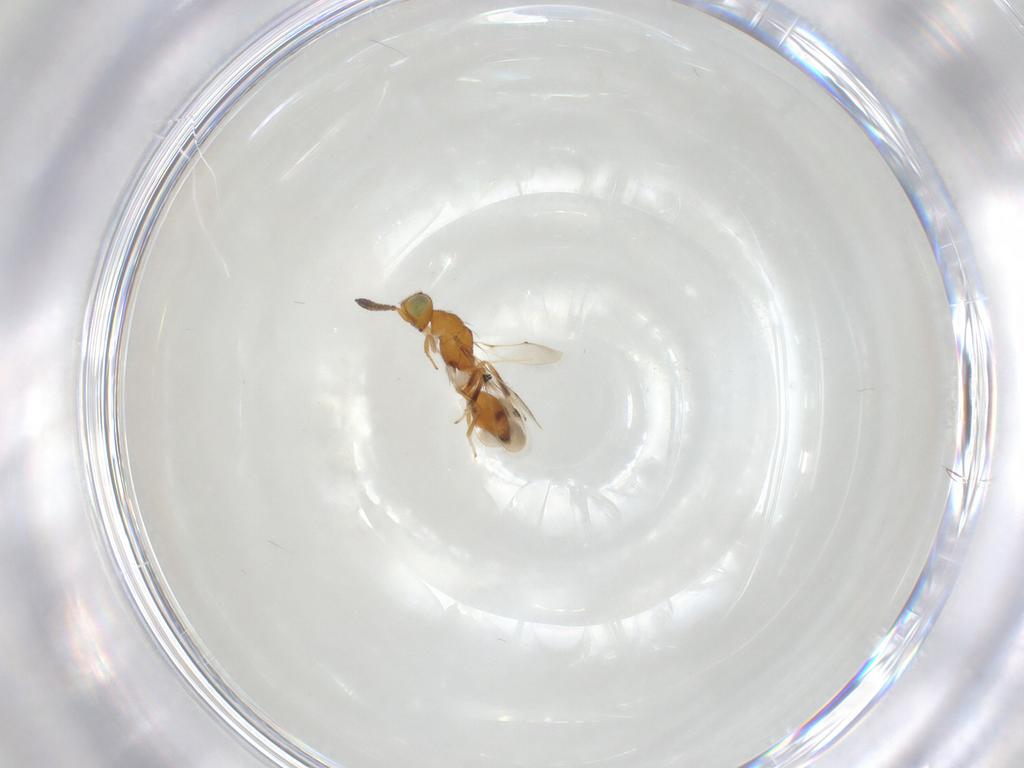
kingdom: Animalia
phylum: Arthropoda
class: Insecta
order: Hymenoptera
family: Pteromalidae
